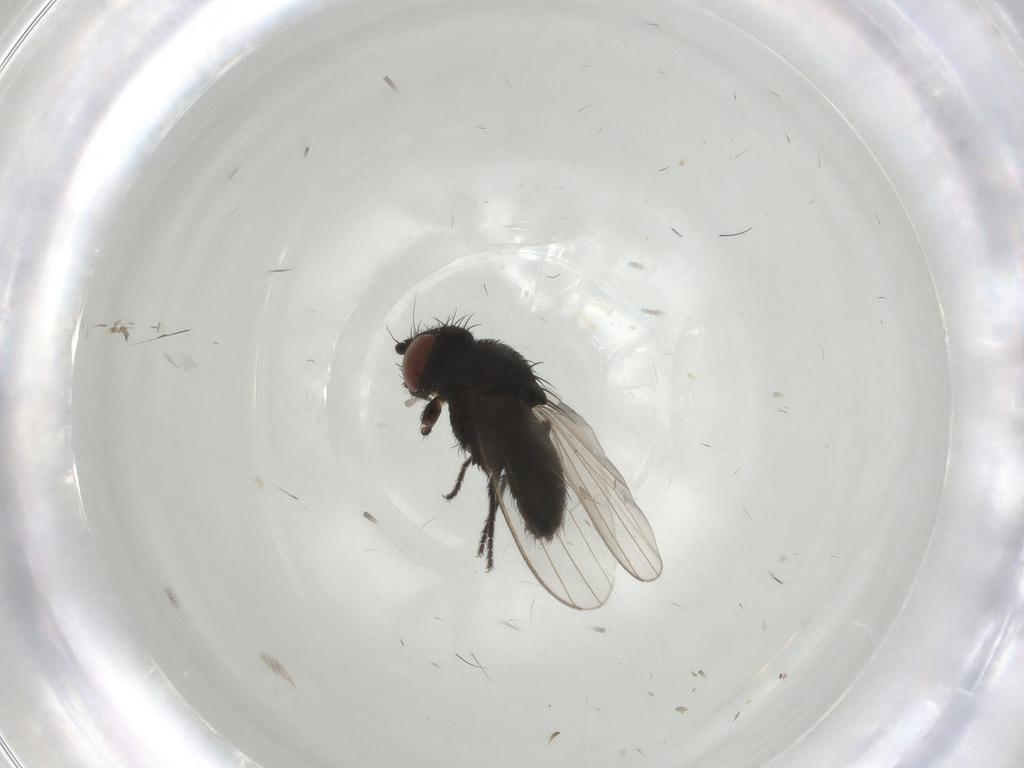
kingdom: Animalia
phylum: Arthropoda
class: Insecta
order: Diptera
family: Limoniidae
